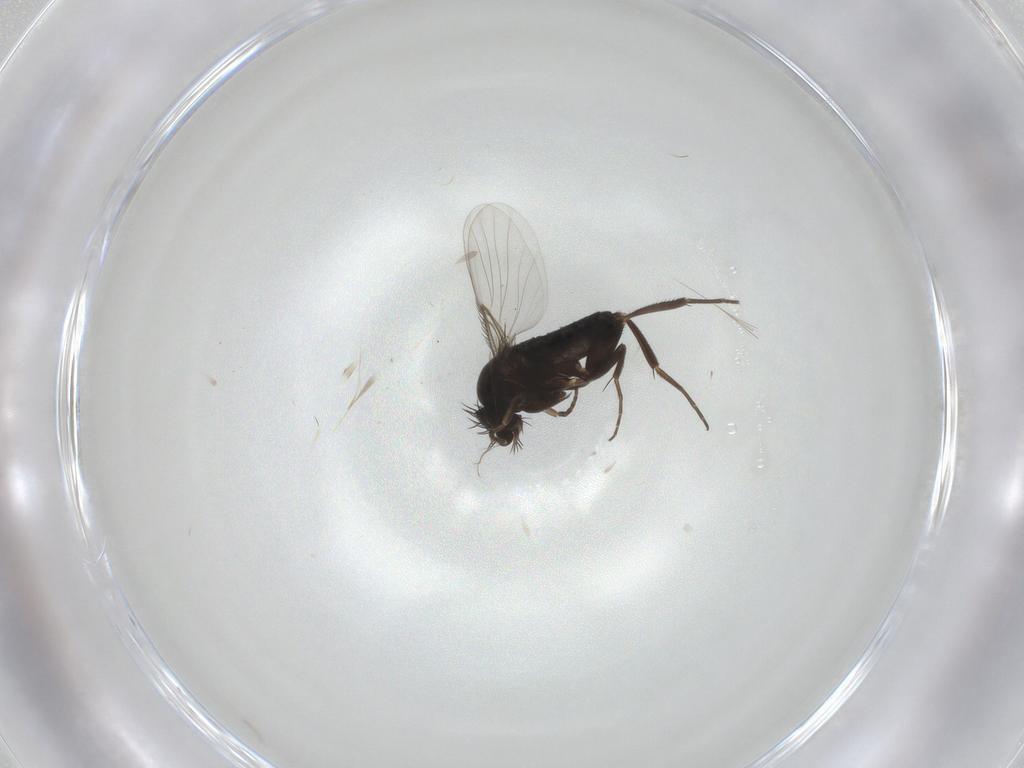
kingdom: Animalia
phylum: Arthropoda
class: Insecta
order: Diptera
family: Phoridae
